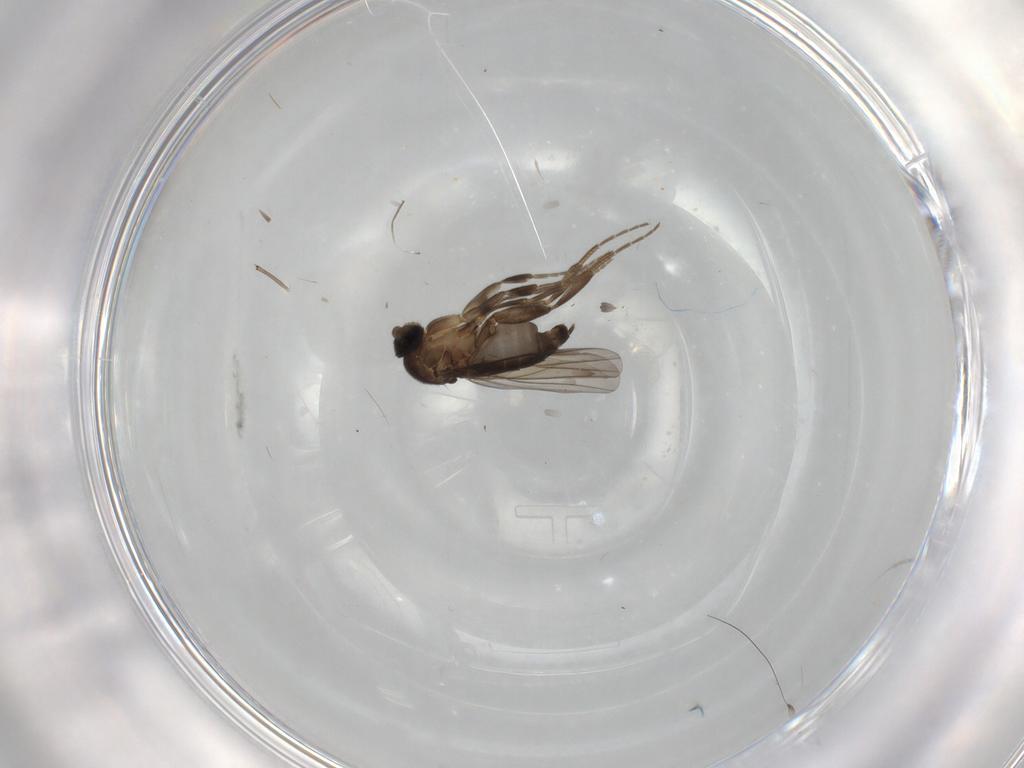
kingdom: Animalia
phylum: Arthropoda
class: Insecta
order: Diptera
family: Phoridae
